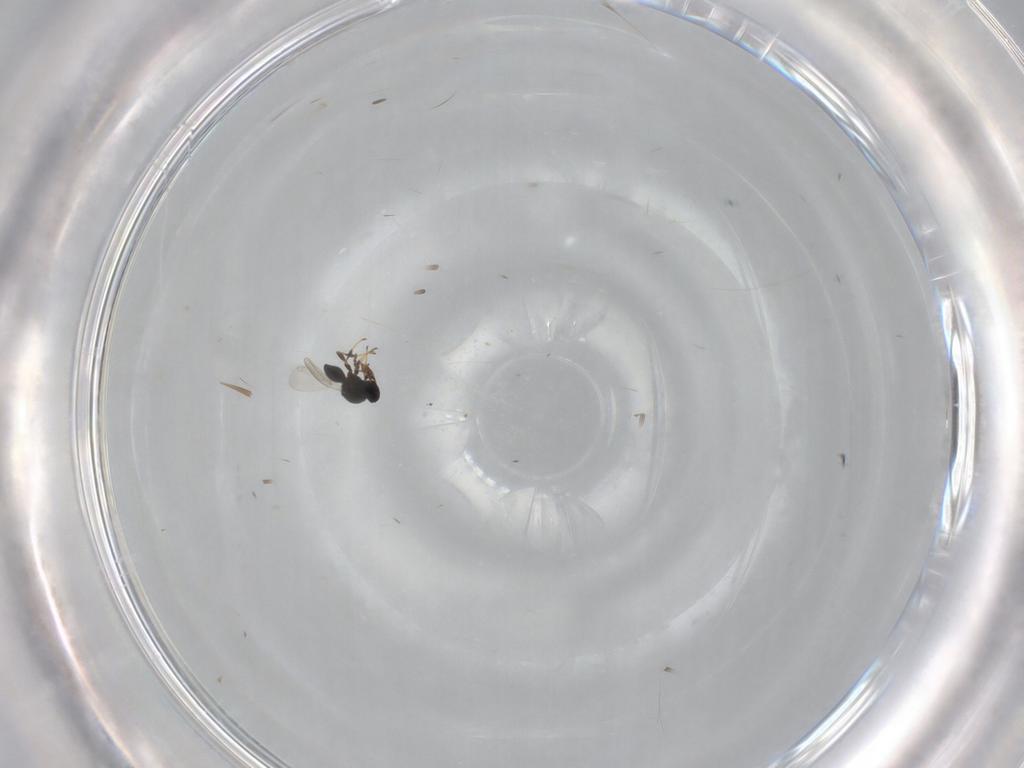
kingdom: Animalia
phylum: Arthropoda
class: Insecta
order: Hymenoptera
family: Platygastridae
